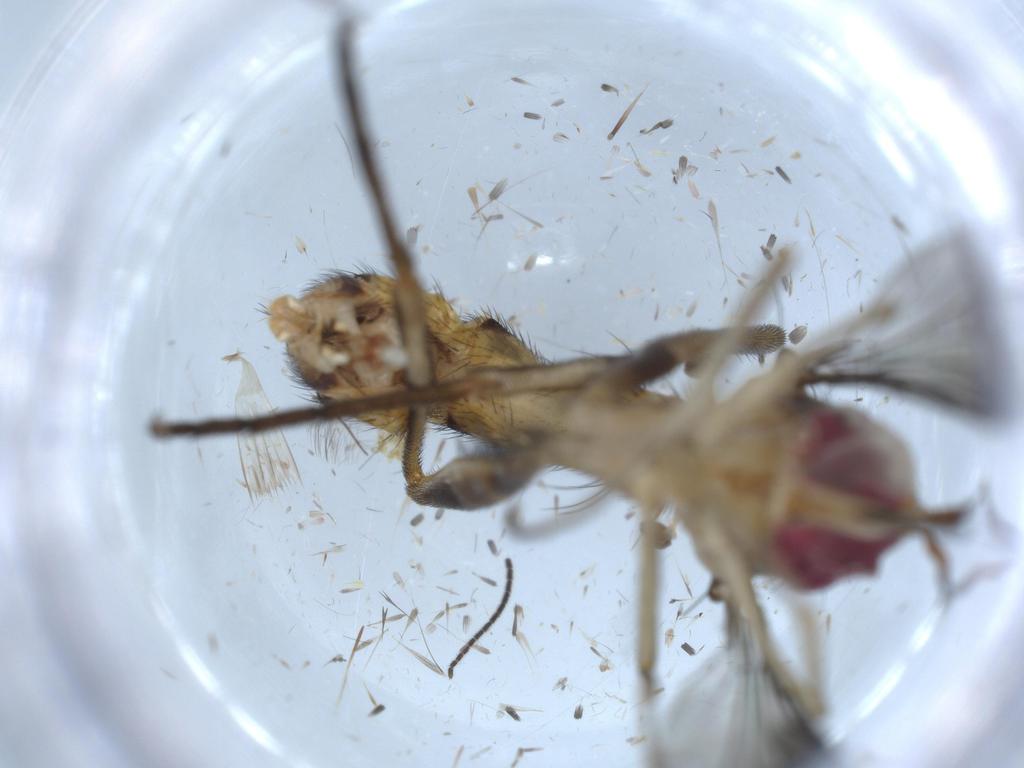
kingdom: Animalia
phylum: Arthropoda
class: Insecta
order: Diptera
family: Conopidae
